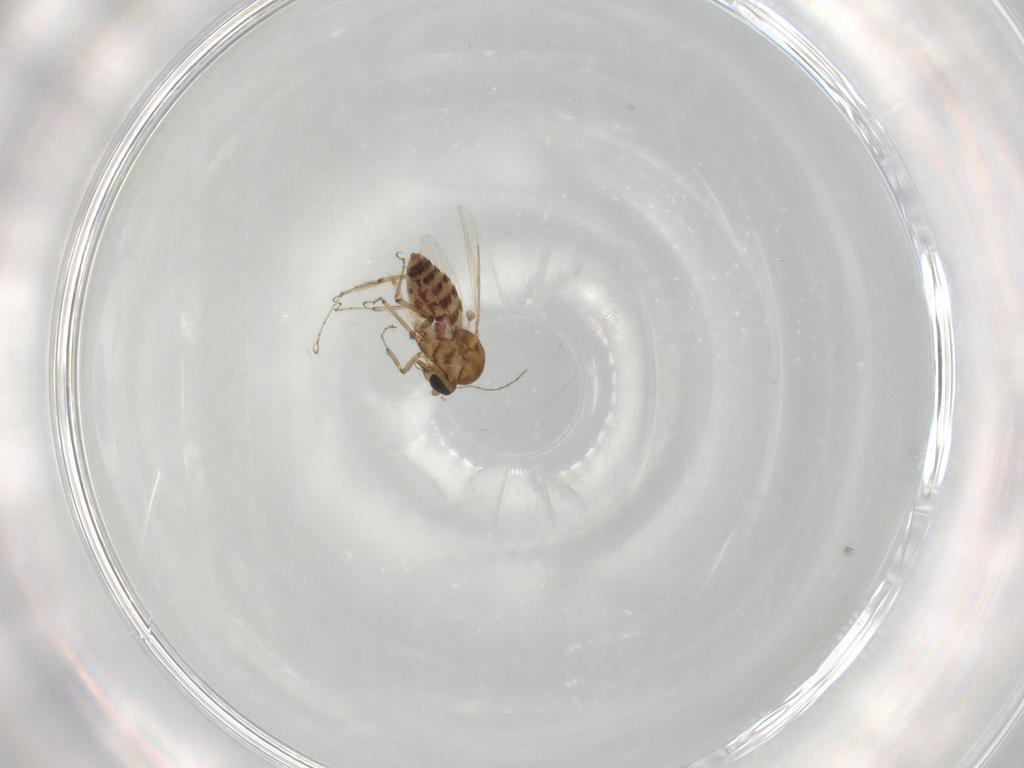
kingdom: Animalia
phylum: Arthropoda
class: Insecta
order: Diptera
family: Ceratopogonidae
